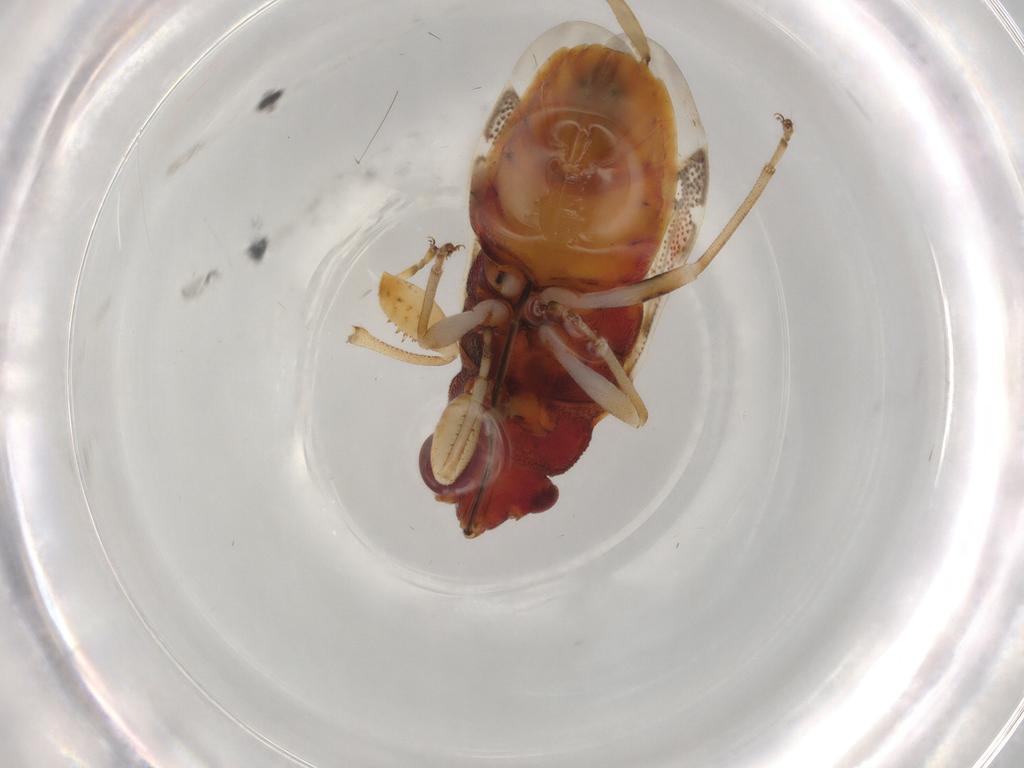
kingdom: Animalia
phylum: Arthropoda
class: Insecta
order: Hemiptera
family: Rhyparochromidae
